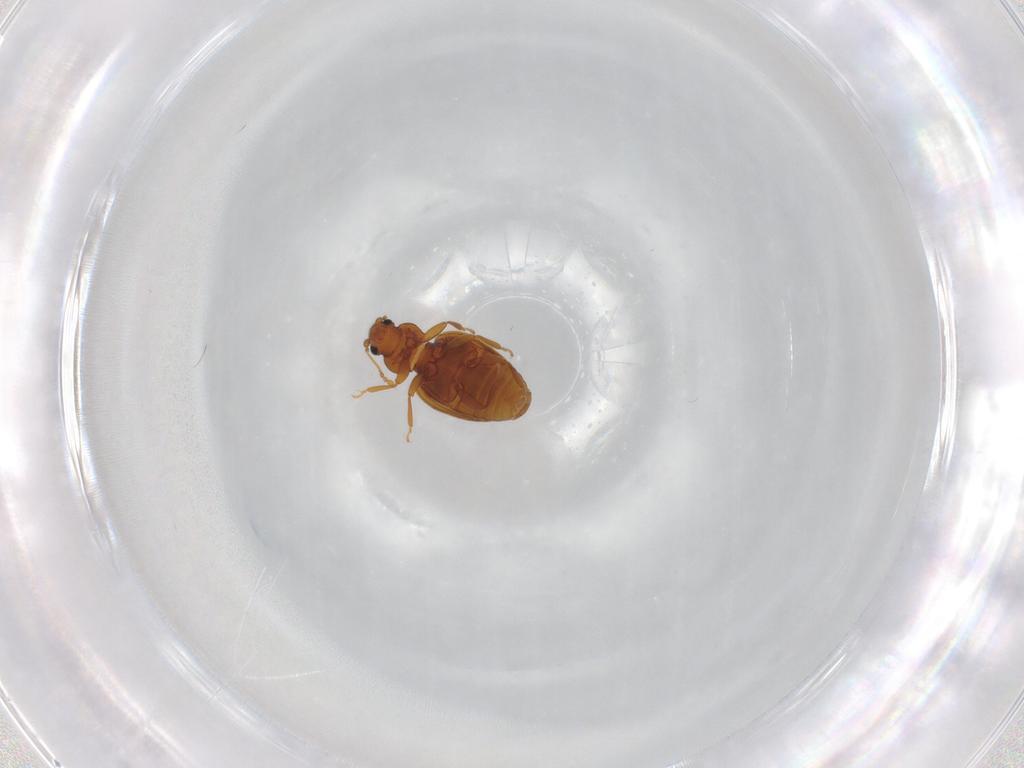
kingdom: Animalia
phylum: Arthropoda
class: Insecta
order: Coleoptera
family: Latridiidae
